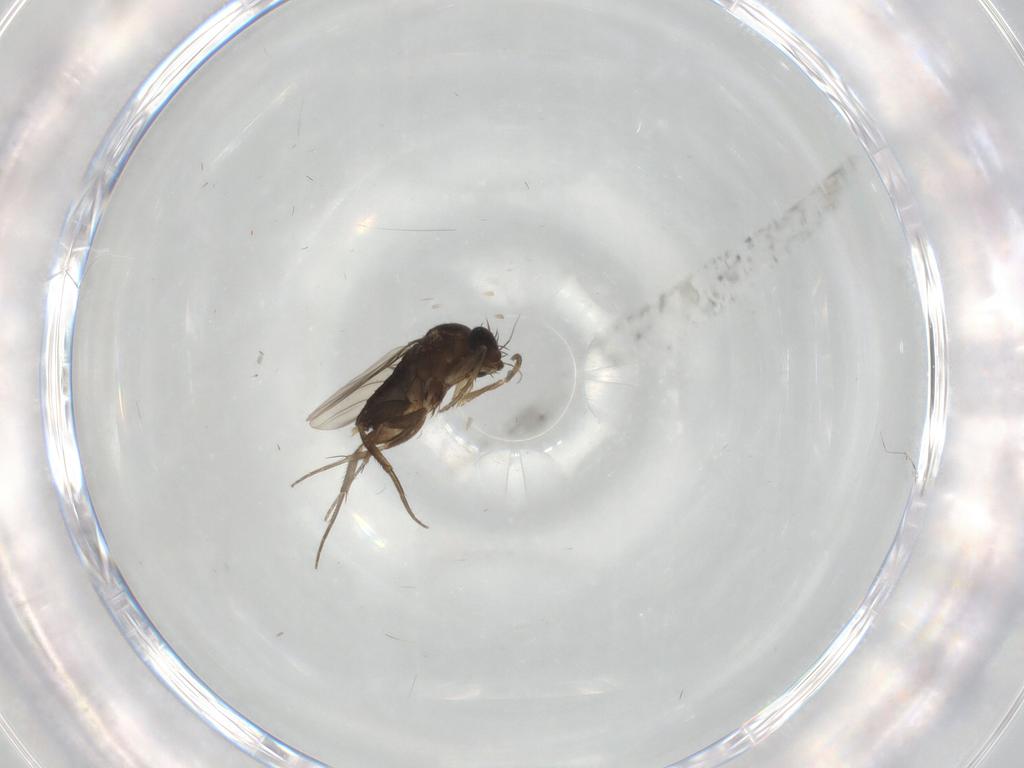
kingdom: Animalia
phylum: Arthropoda
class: Insecta
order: Diptera
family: Phoridae
